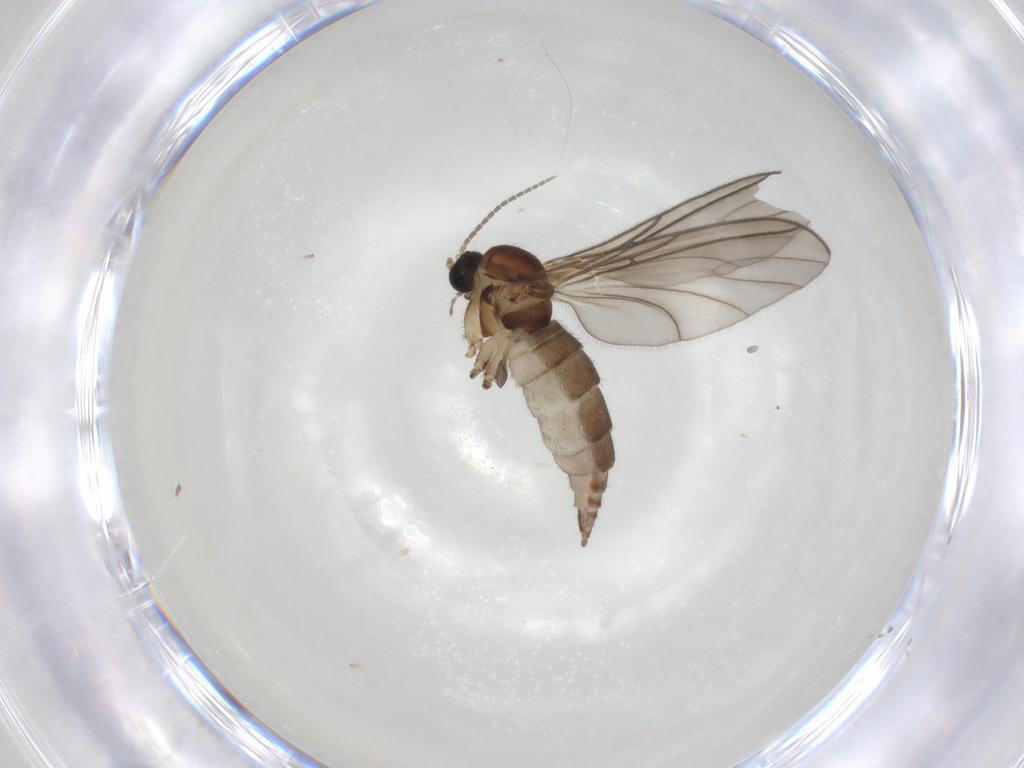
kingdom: Animalia
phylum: Arthropoda
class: Insecta
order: Diptera
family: Sciaridae
